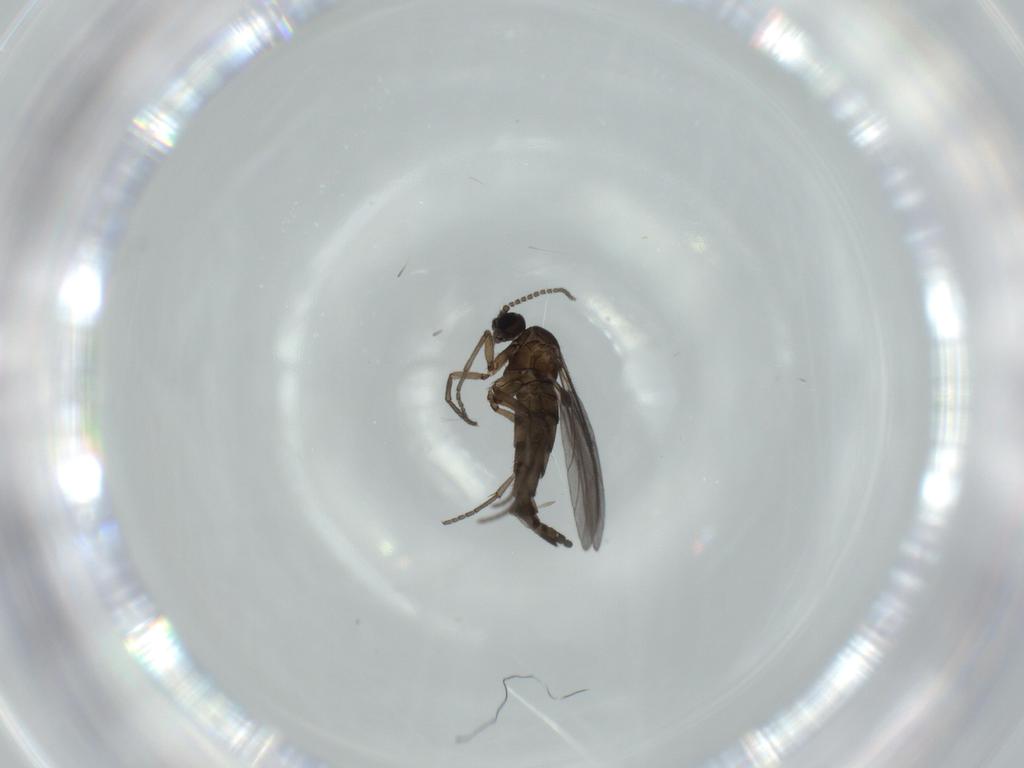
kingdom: Animalia
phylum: Arthropoda
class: Insecta
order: Diptera
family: Sciaridae
